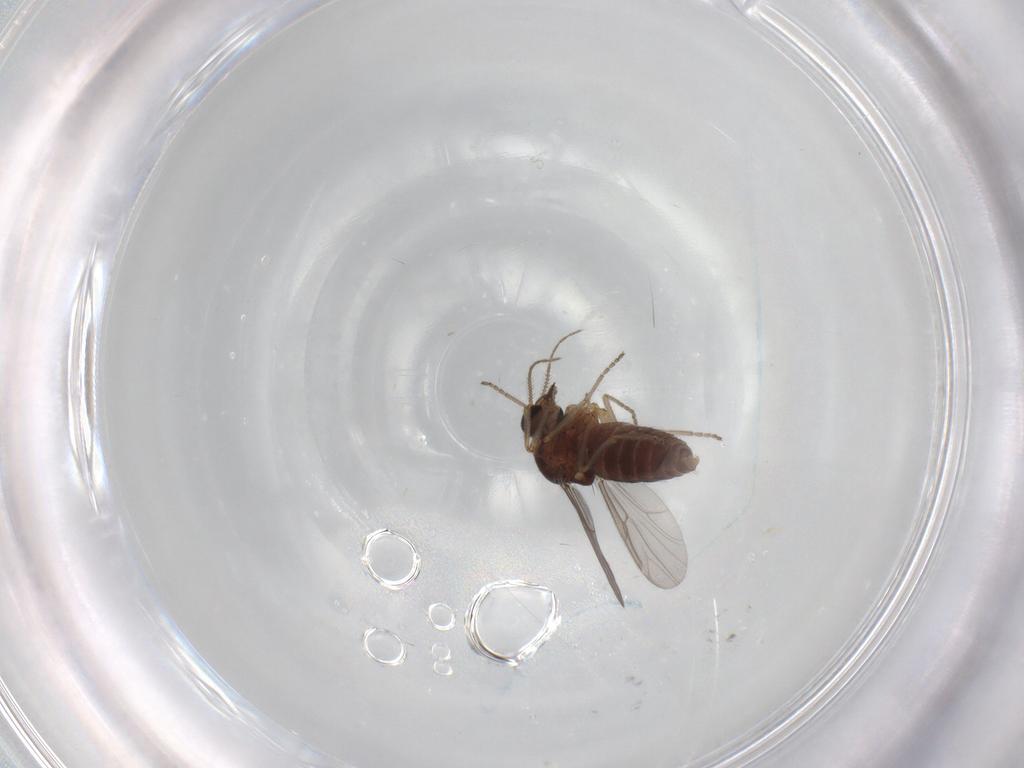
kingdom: Animalia
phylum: Arthropoda
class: Insecta
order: Diptera
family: Ceratopogonidae
